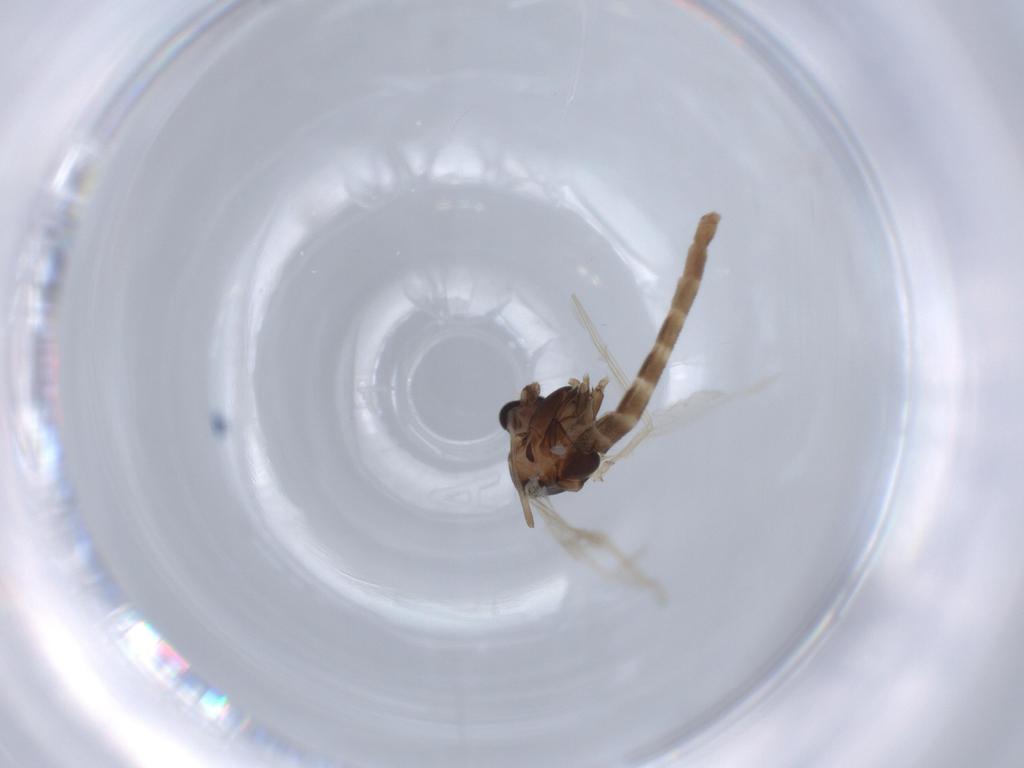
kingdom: Animalia
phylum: Arthropoda
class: Insecta
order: Diptera
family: Chironomidae
